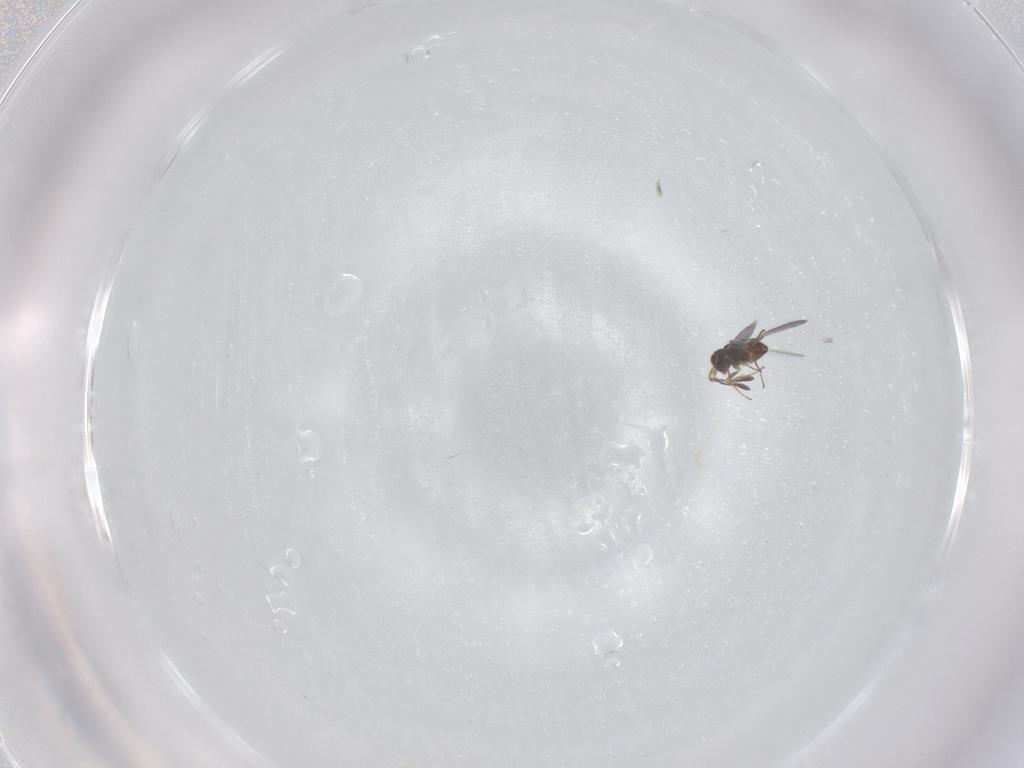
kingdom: Animalia
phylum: Arthropoda
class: Insecta
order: Hymenoptera
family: Mymaridae
